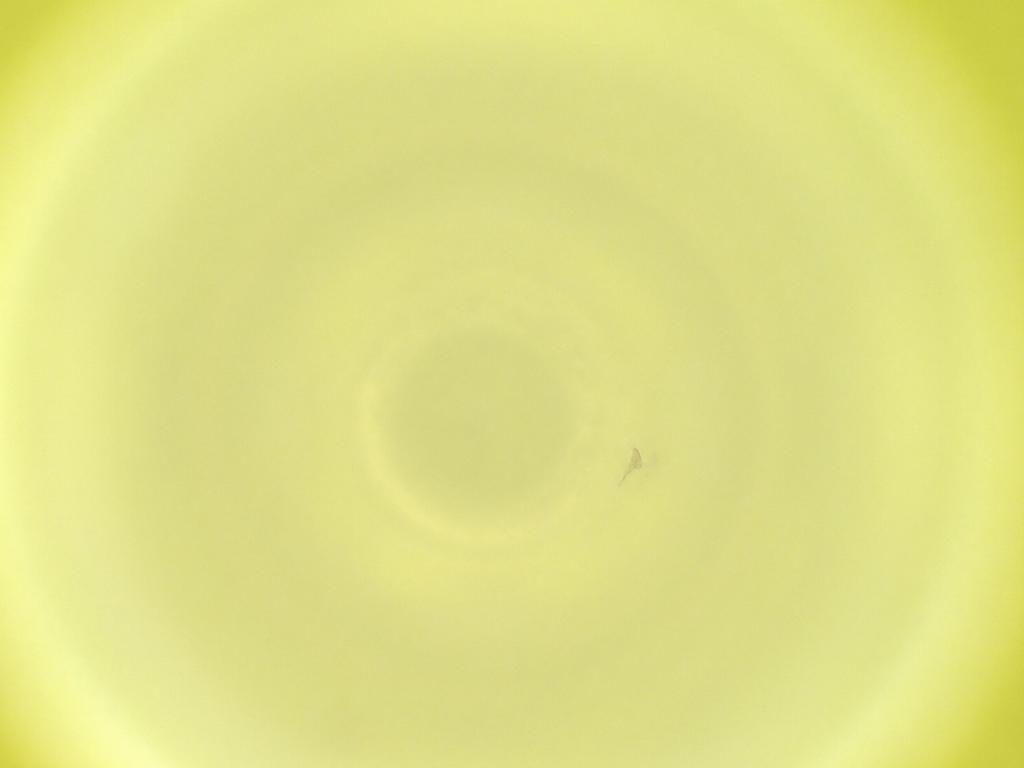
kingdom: Animalia
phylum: Arthropoda
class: Insecta
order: Diptera
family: Cecidomyiidae
